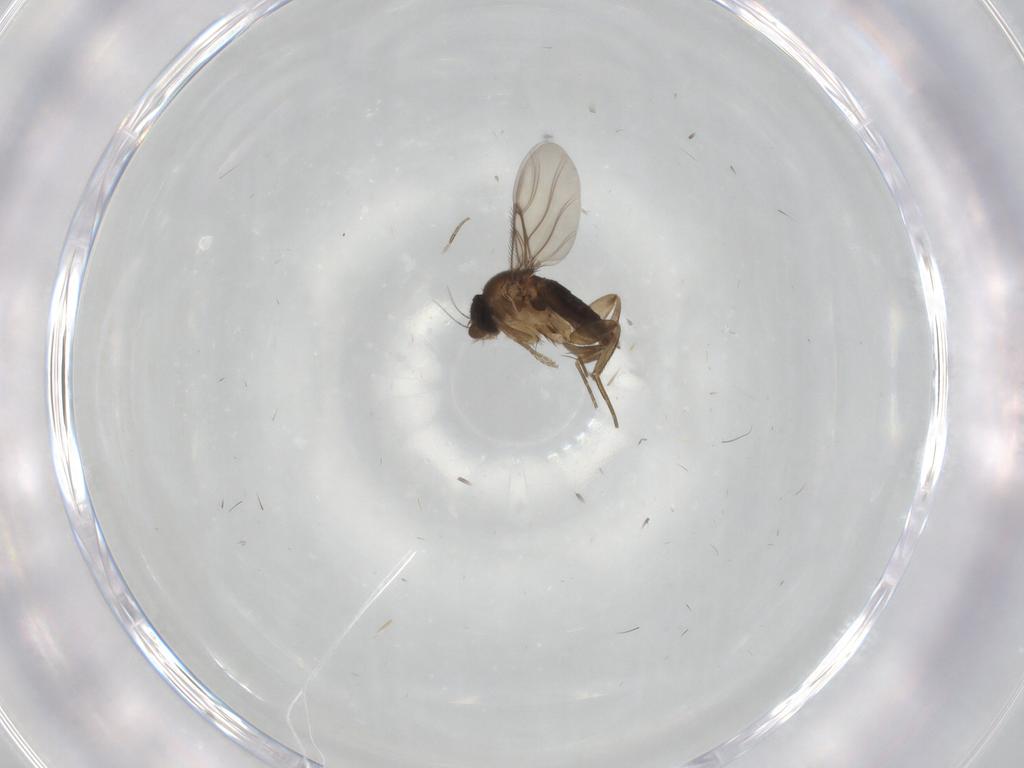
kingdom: Animalia
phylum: Arthropoda
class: Insecta
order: Diptera
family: Phoridae
